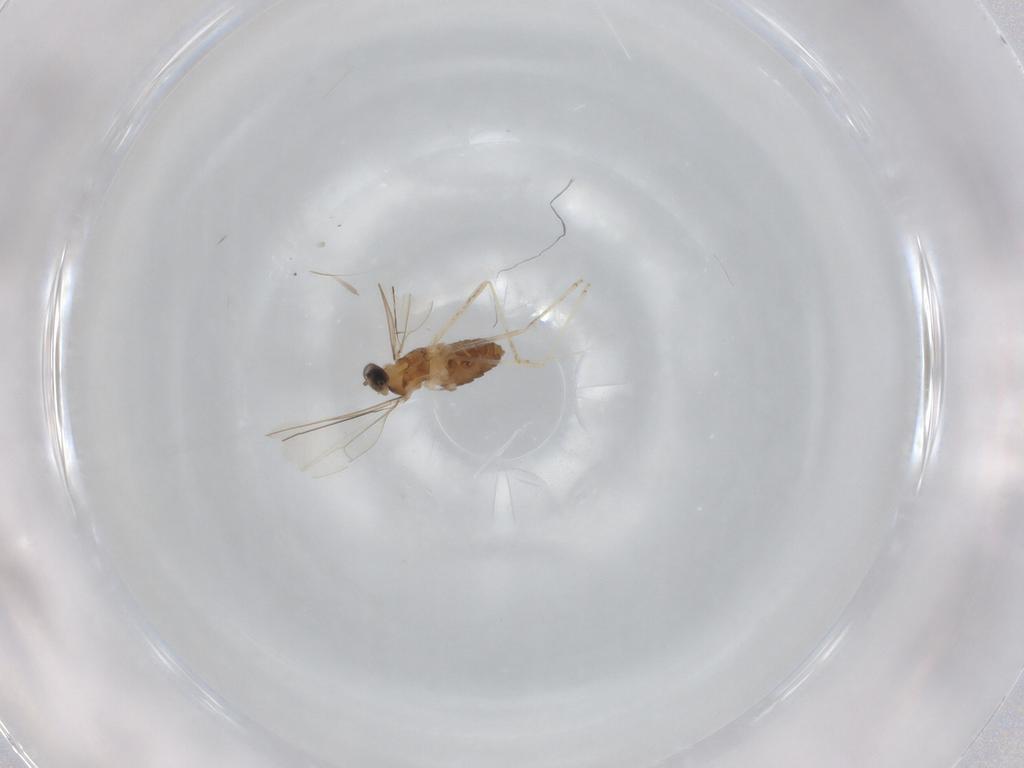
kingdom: Animalia
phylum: Arthropoda
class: Insecta
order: Diptera
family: Cecidomyiidae
